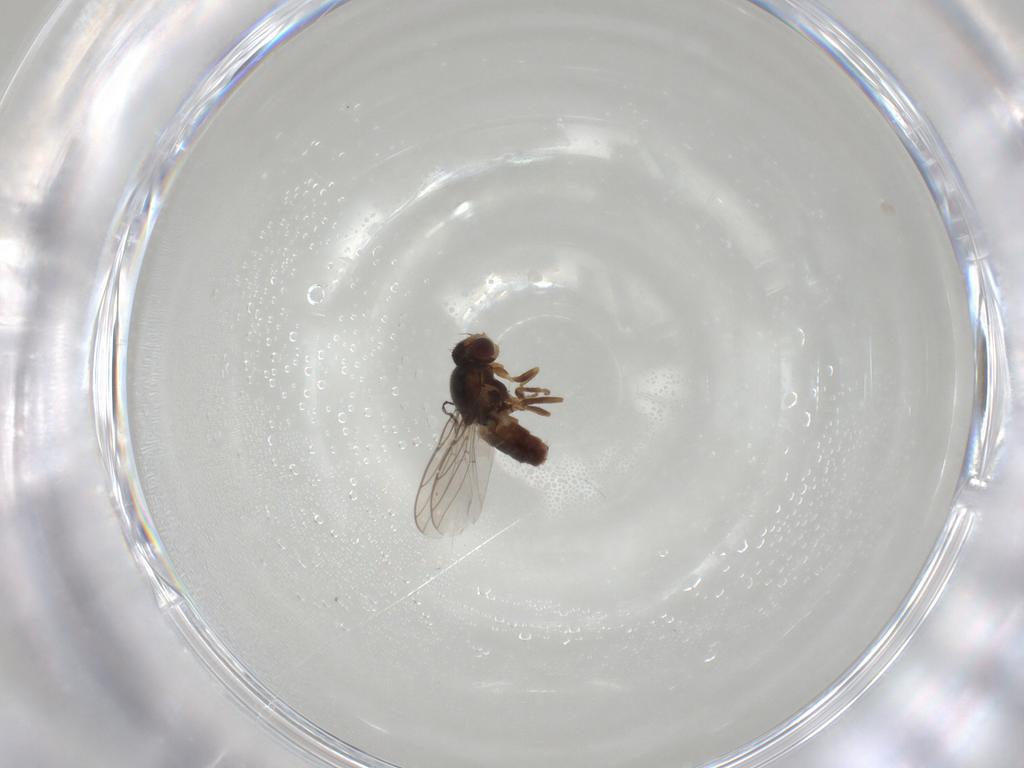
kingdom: Animalia
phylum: Arthropoda
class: Insecta
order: Diptera
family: Chloropidae
